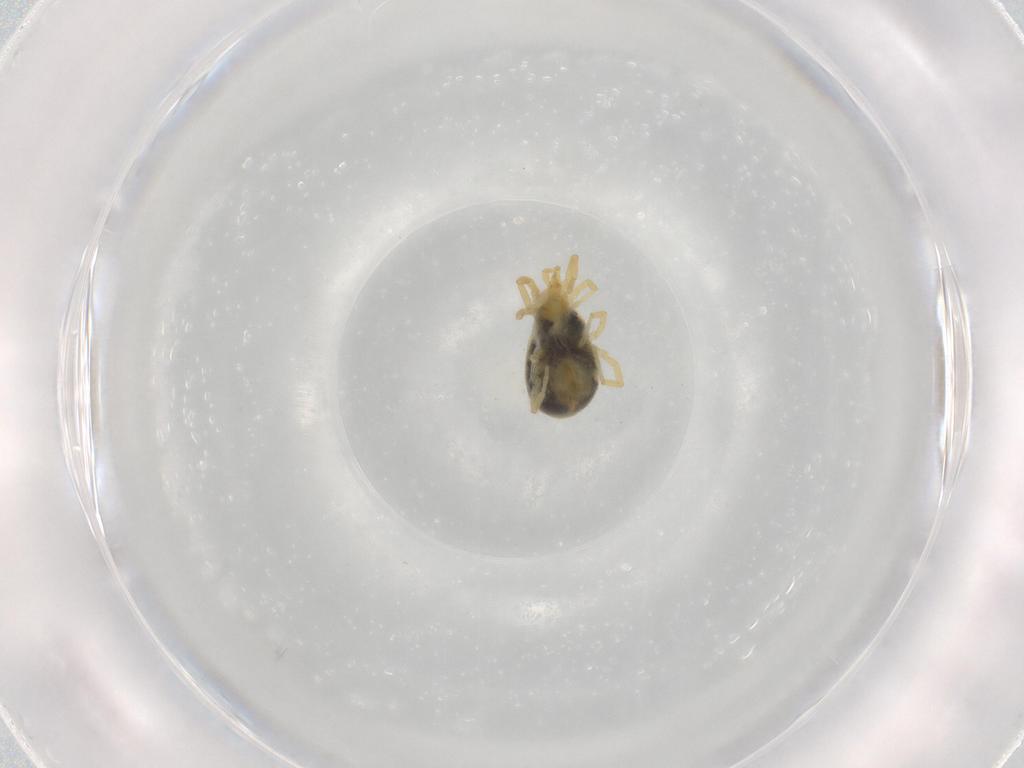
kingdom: Animalia
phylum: Arthropoda
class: Arachnida
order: Trombidiformes
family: Erythraeidae
